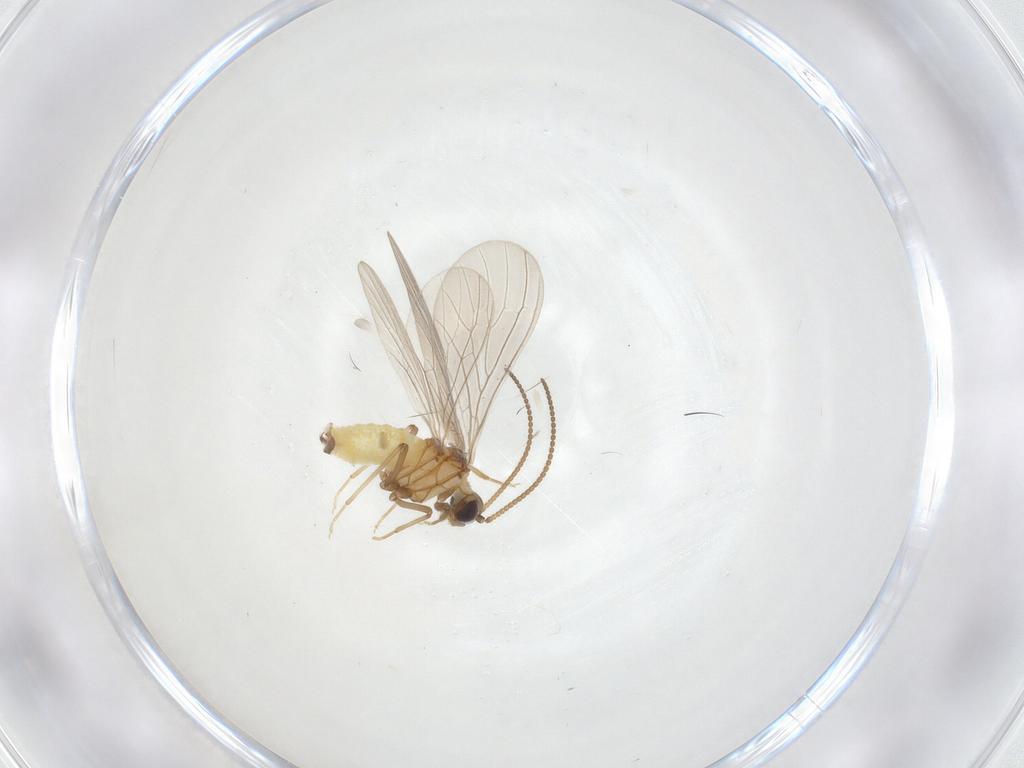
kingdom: Animalia
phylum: Arthropoda
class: Insecta
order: Neuroptera
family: Coniopterygidae
